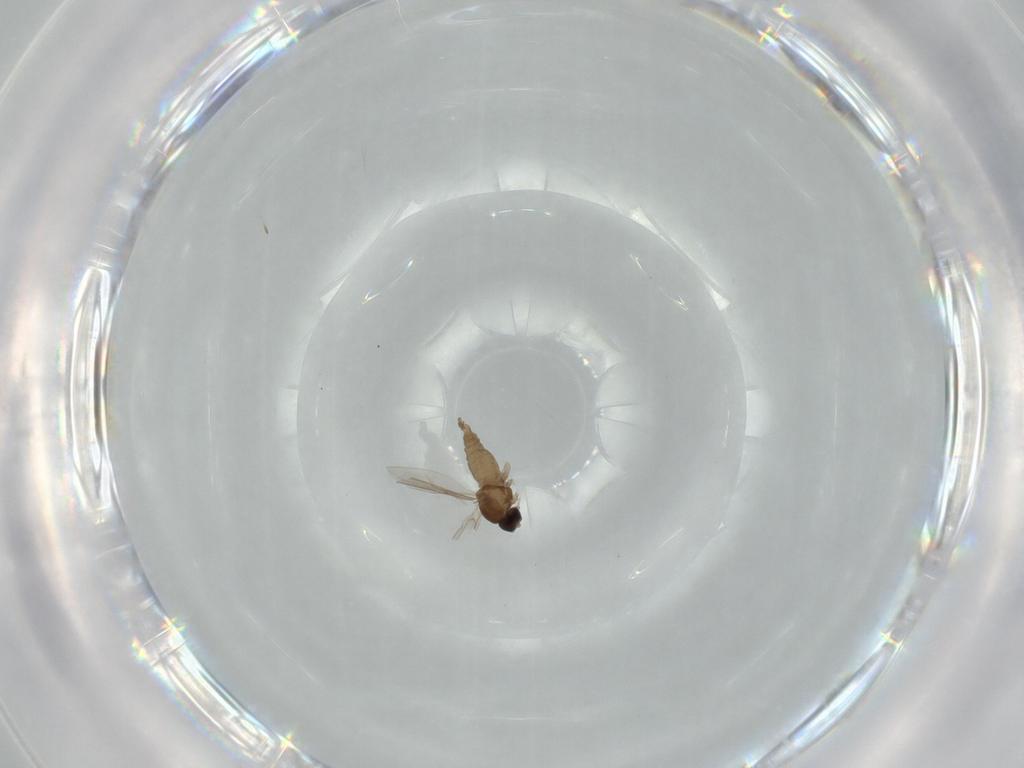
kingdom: Animalia
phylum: Arthropoda
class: Insecta
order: Diptera
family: Cecidomyiidae
